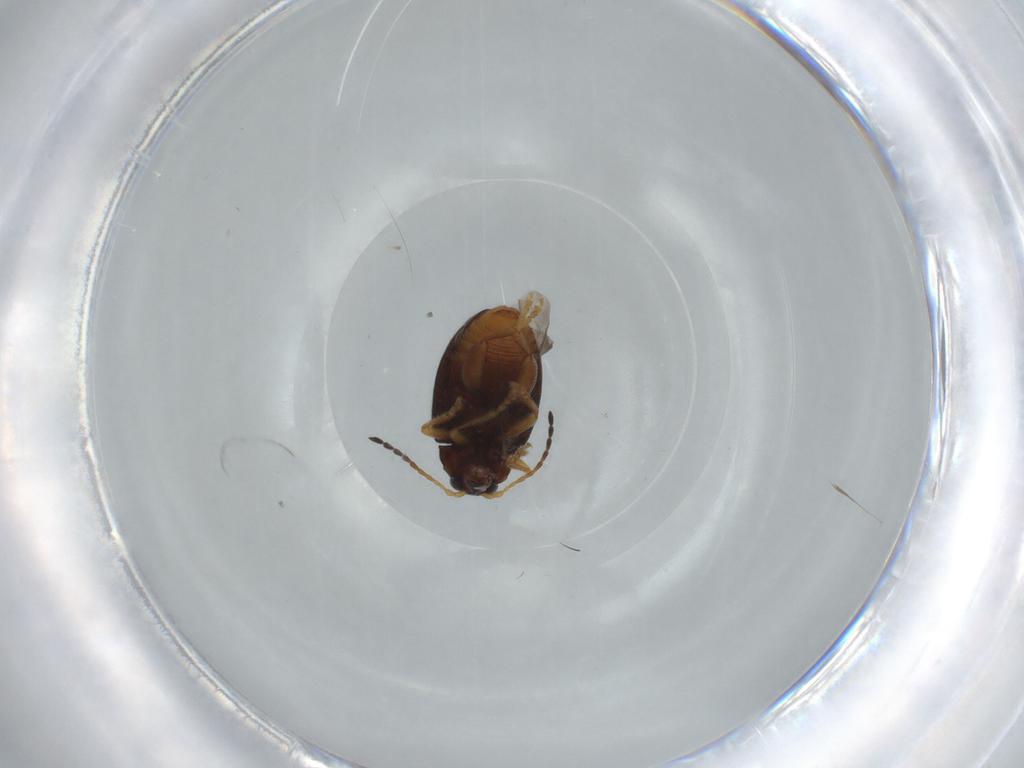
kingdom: Animalia
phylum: Arthropoda
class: Insecta
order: Coleoptera
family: Chrysomelidae
